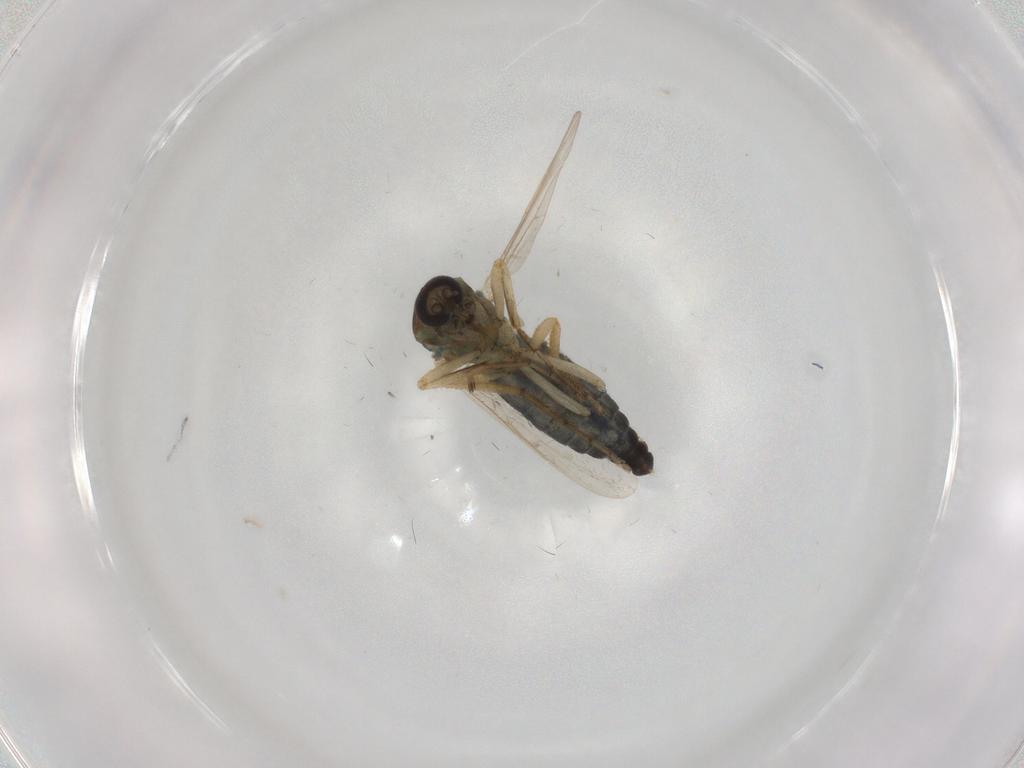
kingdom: Animalia
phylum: Arthropoda
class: Insecta
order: Diptera
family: Ceratopogonidae
